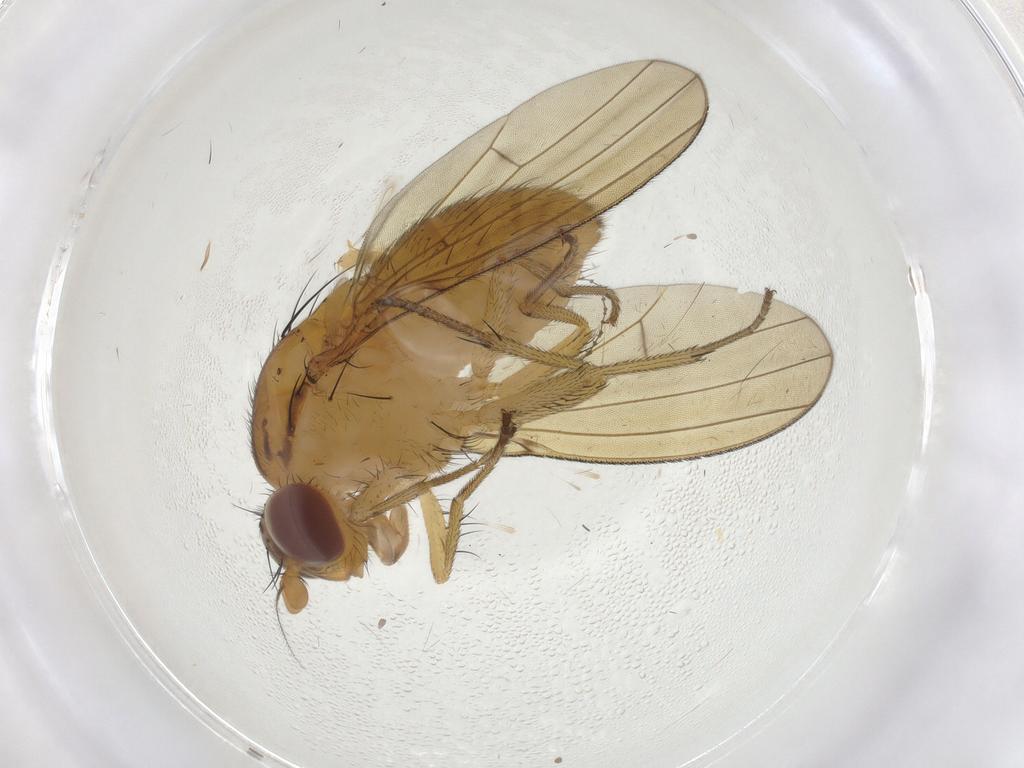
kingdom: Animalia
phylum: Arthropoda
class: Insecta
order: Diptera
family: Lauxaniidae
